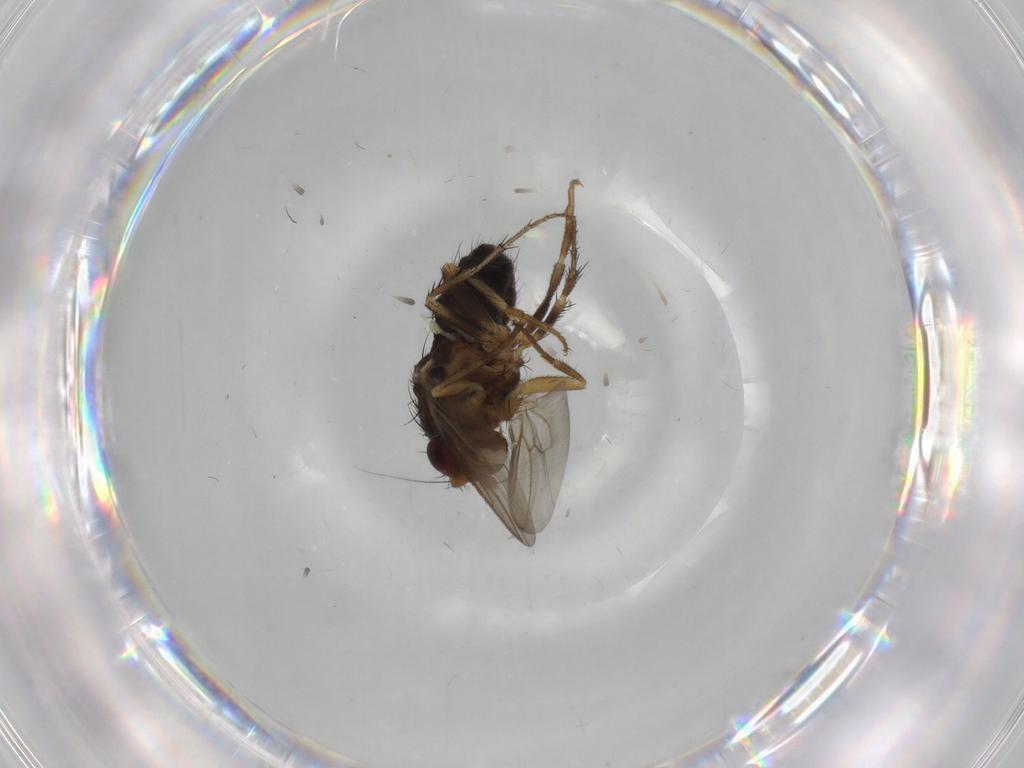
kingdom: Animalia
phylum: Arthropoda
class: Insecta
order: Diptera
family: Sphaeroceridae
